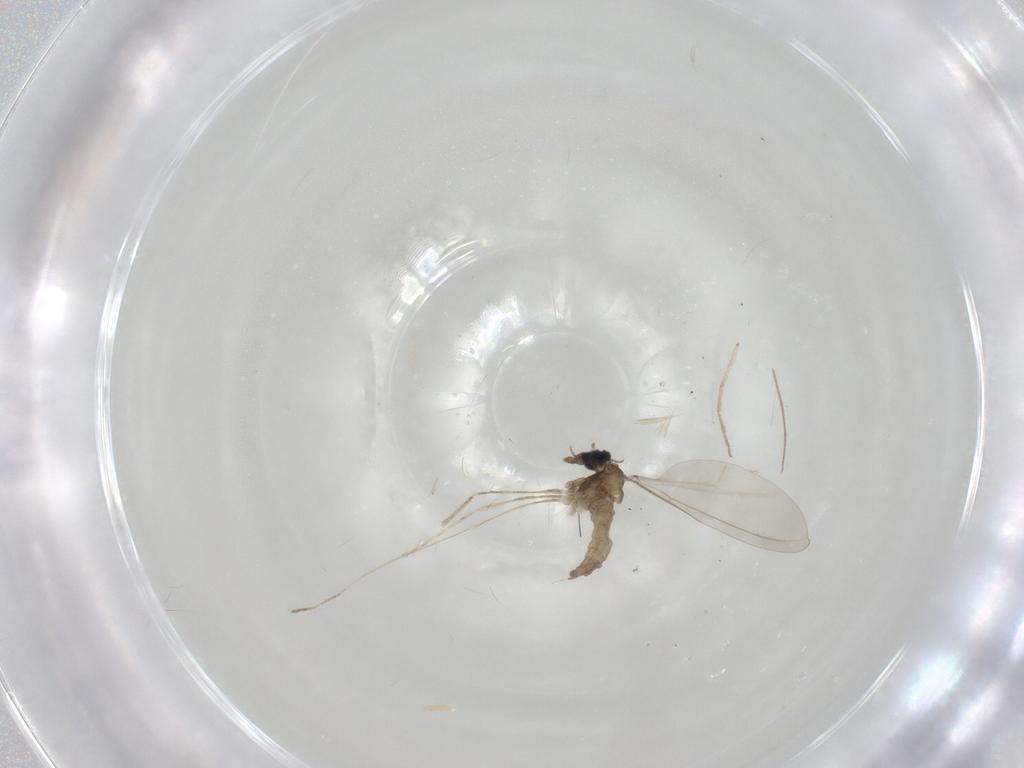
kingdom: Animalia
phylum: Arthropoda
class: Insecta
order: Diptera
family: Cecidomyiidae
